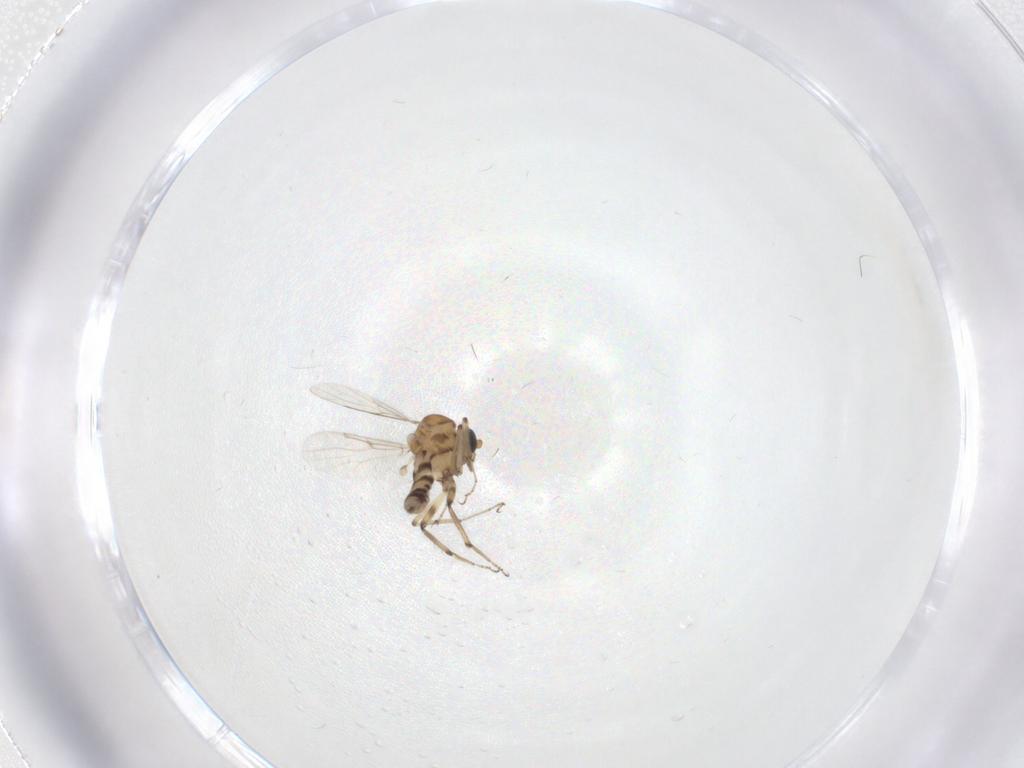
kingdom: Animalia
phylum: Arthropoda
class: Insecta
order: Diptera
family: Ceratopogonidae
